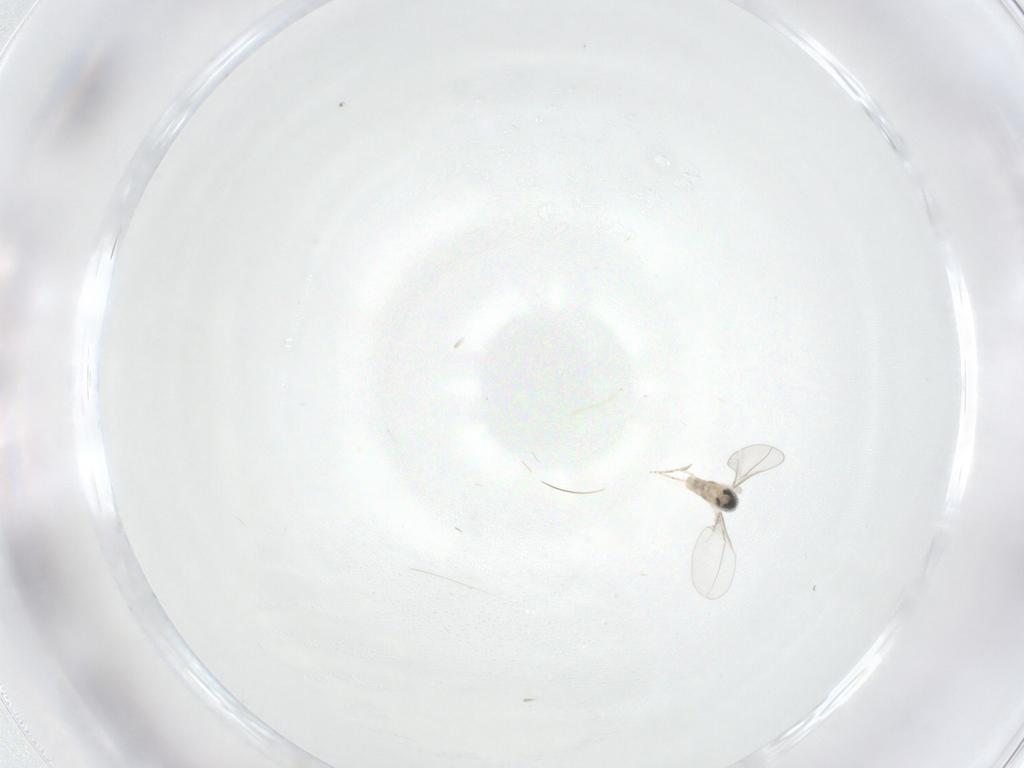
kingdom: Animalia
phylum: Arthropoda
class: Insecta
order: Diptera
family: Cecidomyiidae
